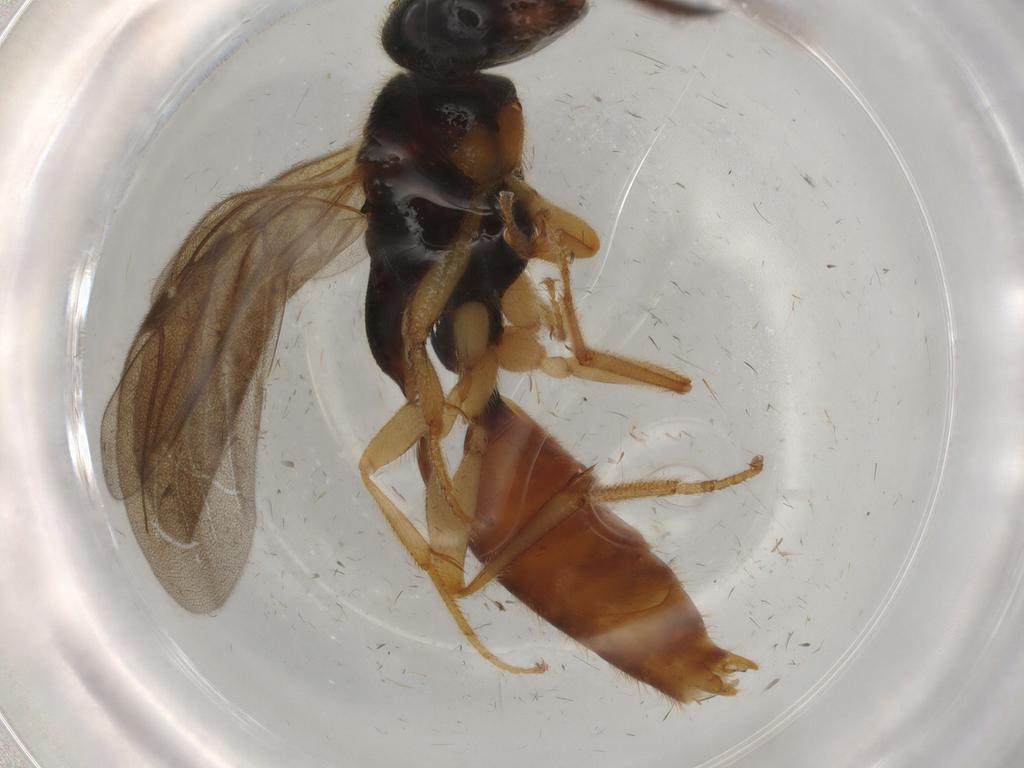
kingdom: Animalia
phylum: Arthropoda
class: Insecta
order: Hymenoptera
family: Bethylidae
